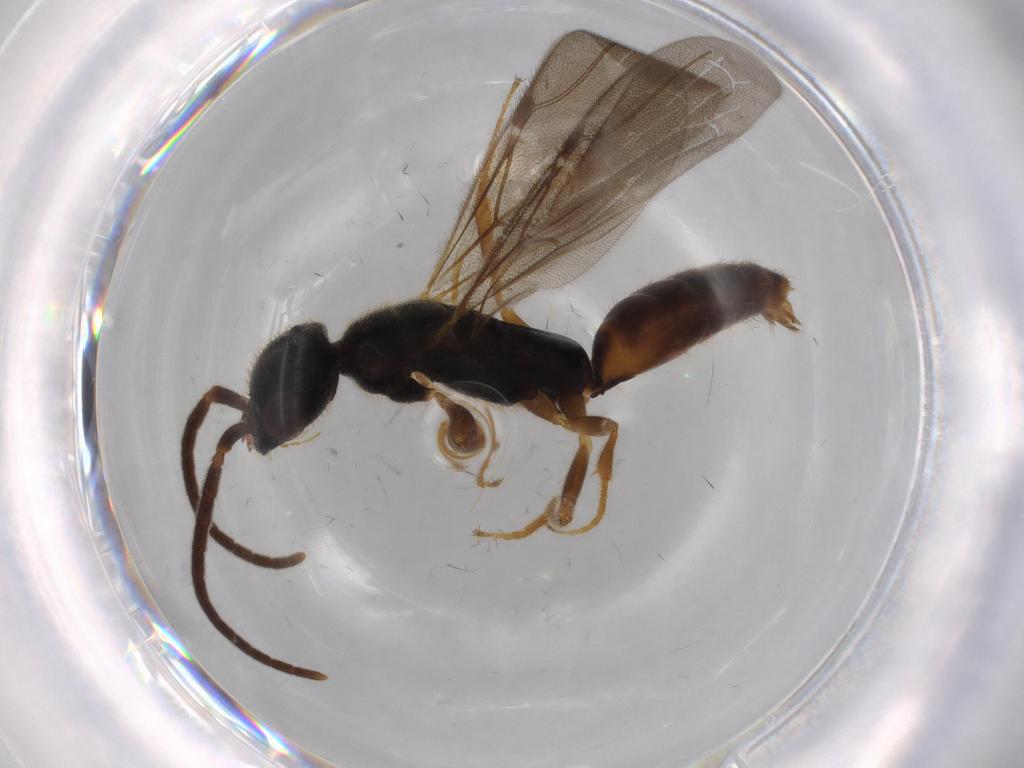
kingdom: Animalia
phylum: Arthropoda
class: Insecta
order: Hymenoptera
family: Bethylidae
